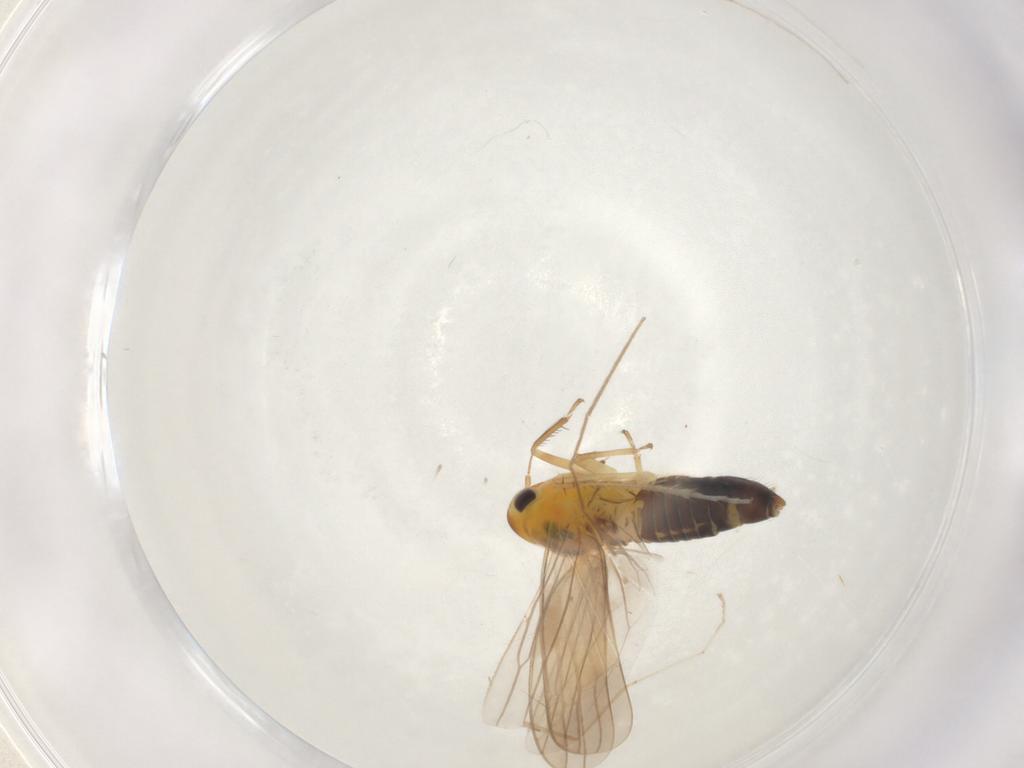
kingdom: Animalia
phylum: Arthropoda
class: Insecta
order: Hemiptera
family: Cicadellidae
